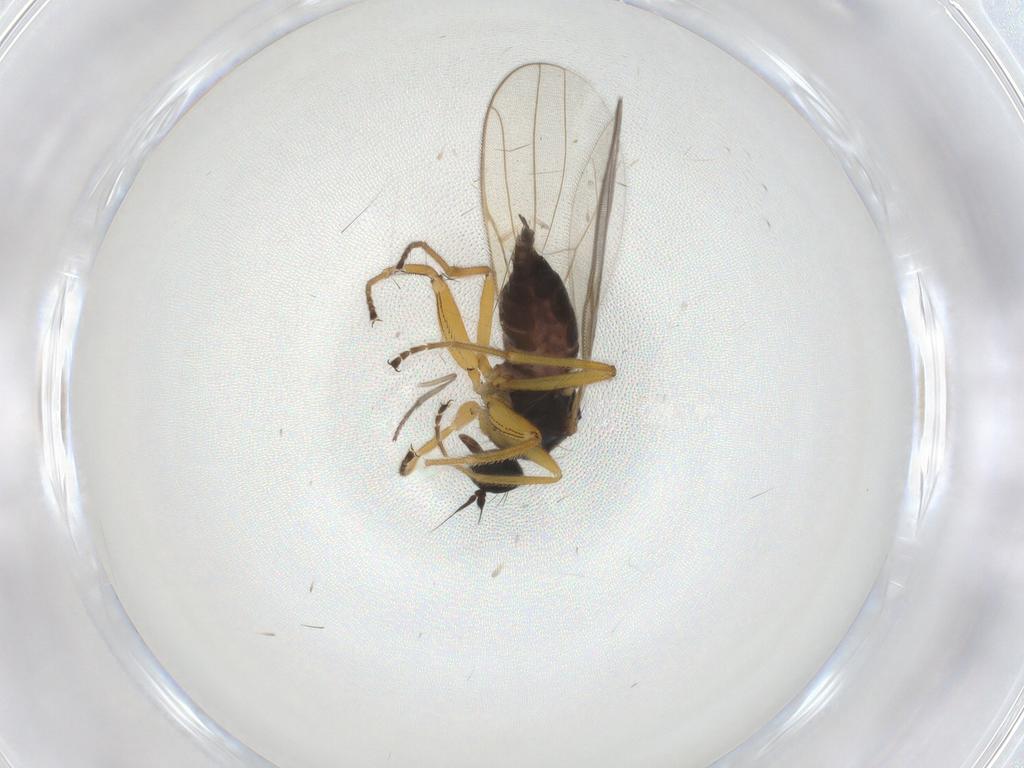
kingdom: Animalia
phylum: Arthropoda
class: Insecta
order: Diptera
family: Hybotidae
